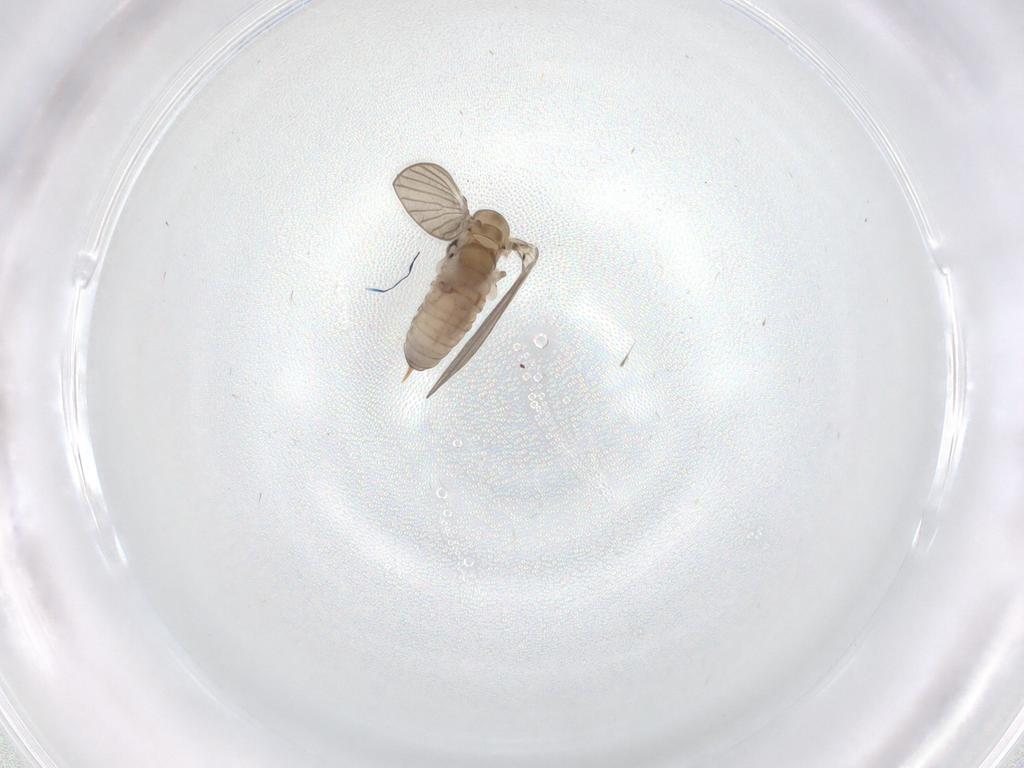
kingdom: Animalia
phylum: Arthropoda
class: Insecta
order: Diptera
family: Psychodidae
